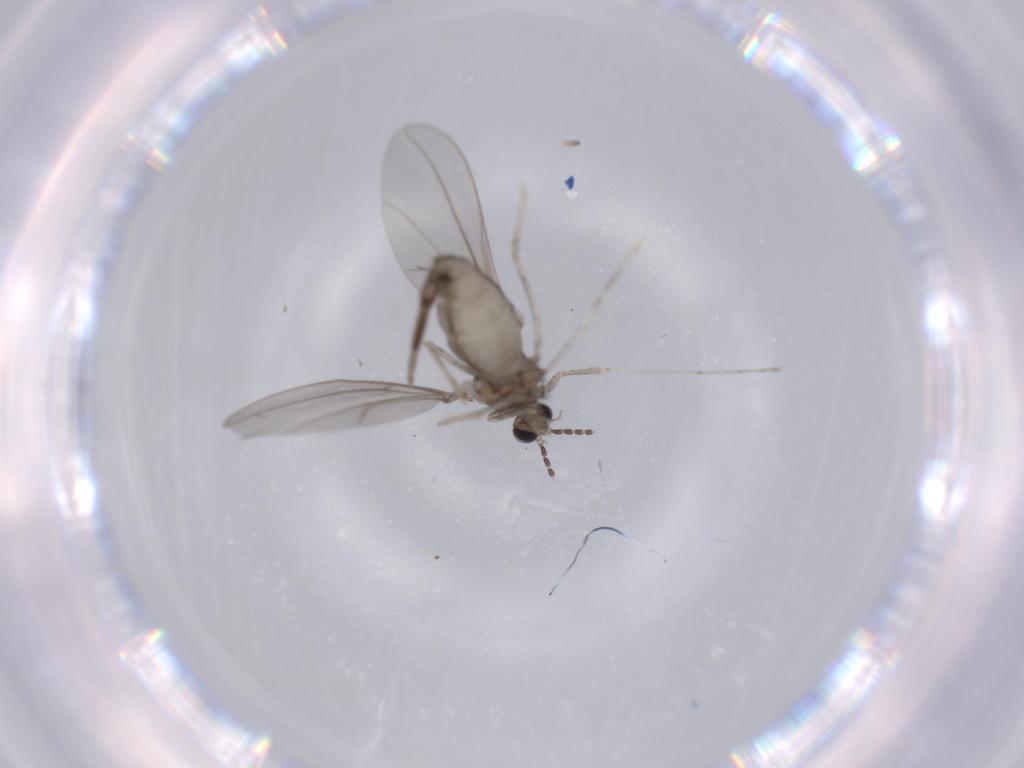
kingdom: Animalia
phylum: Arthropoda
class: Insecta
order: Diptera
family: Cecidomyiidae
